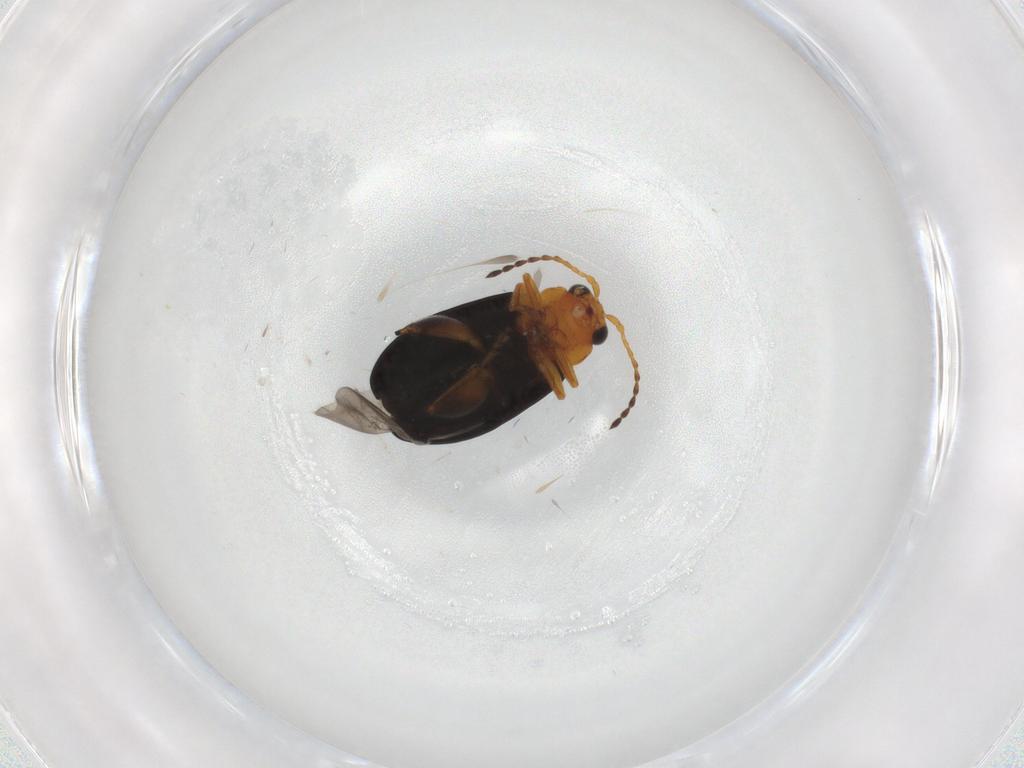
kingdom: Animalia
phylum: Arthropoda
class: Insecta
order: Coleoptera
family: Chrysomelidae
